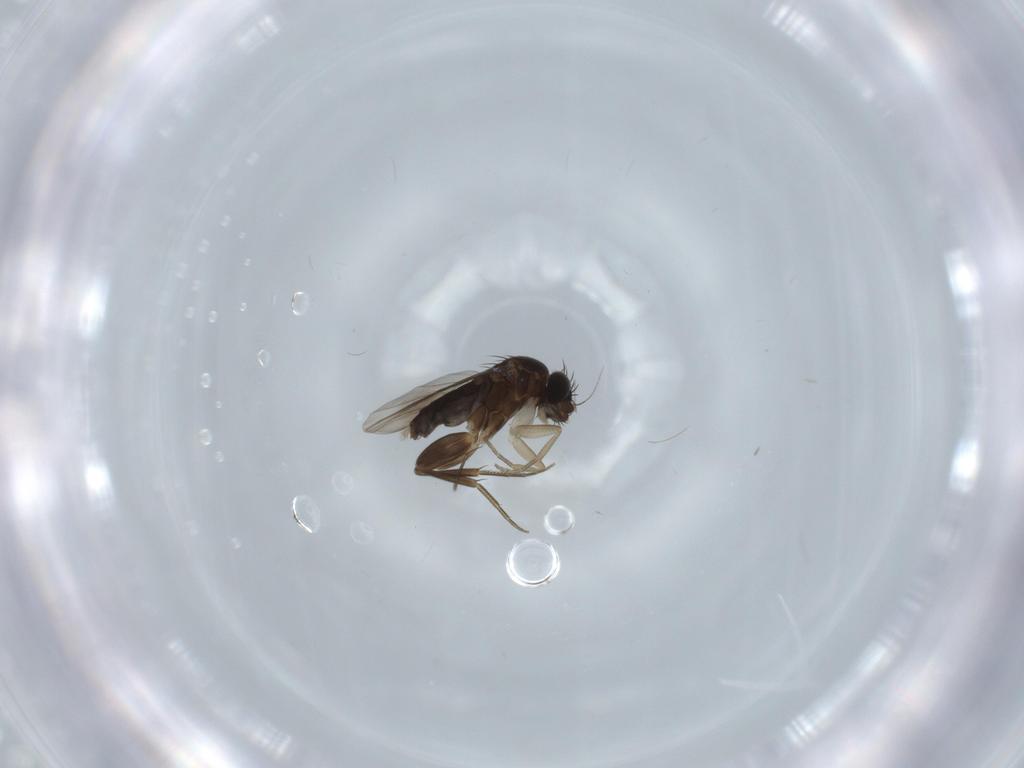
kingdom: Animalia
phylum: Arthropoda
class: Insecta
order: Diptera
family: Phoridae
